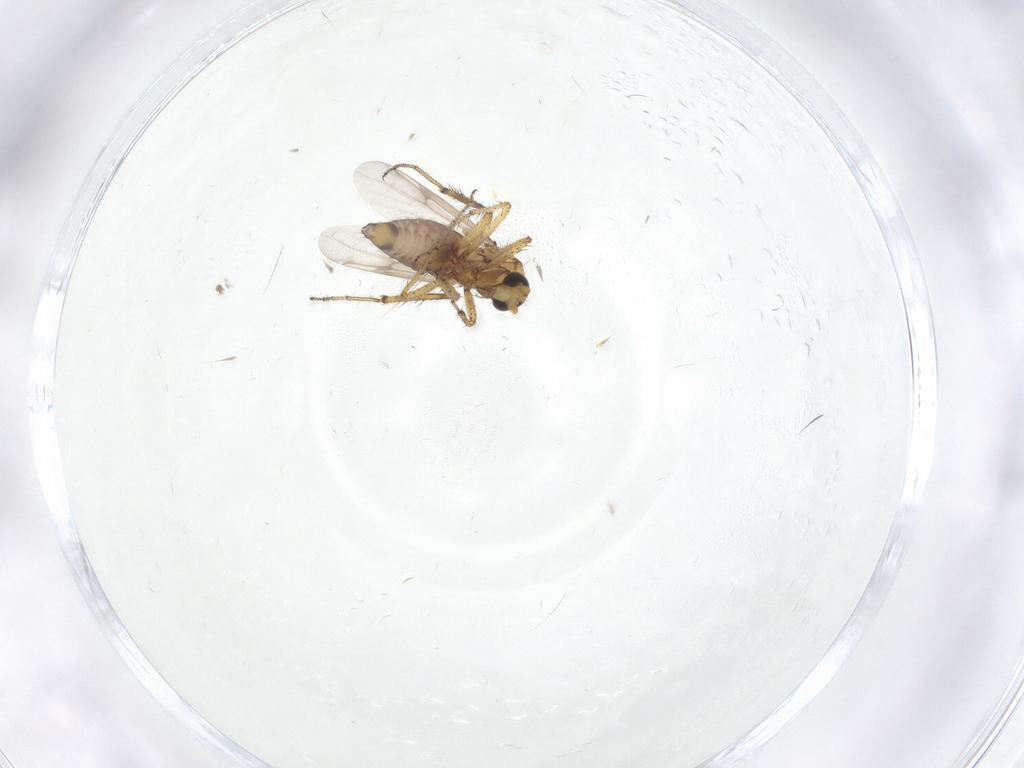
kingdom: Animalia
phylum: Arthropoda
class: Insecta
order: Diptera
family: Ceratopogonidae
